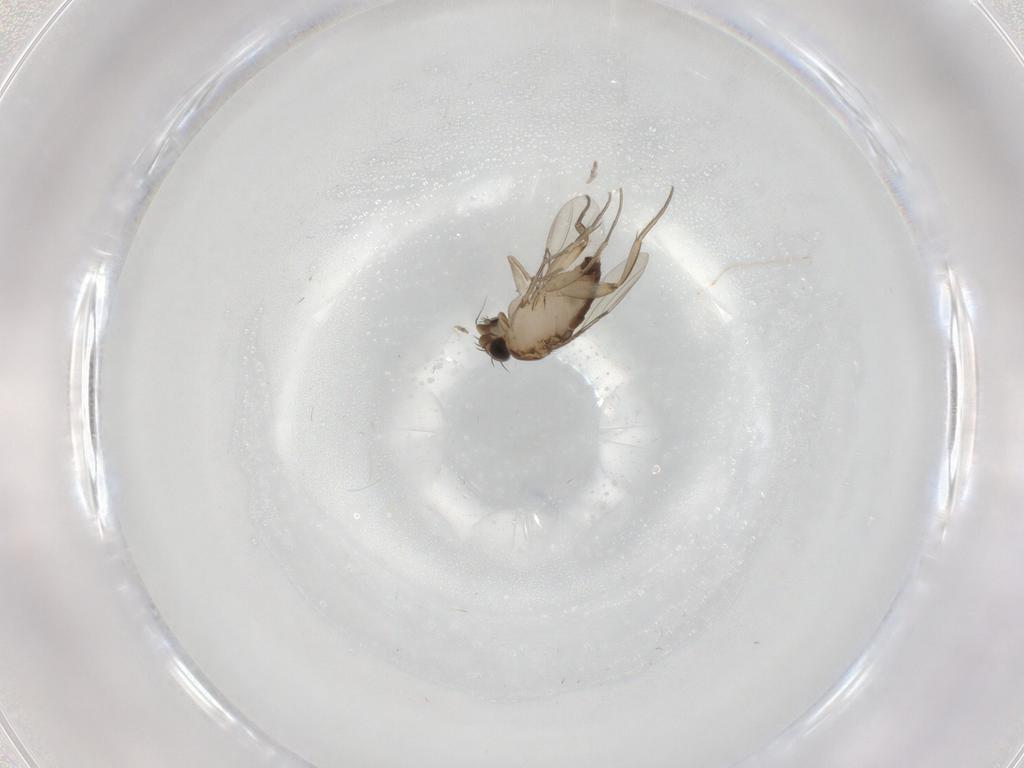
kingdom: Animalia
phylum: Arthropoda
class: Insecta
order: Diptera
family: Phoridae
